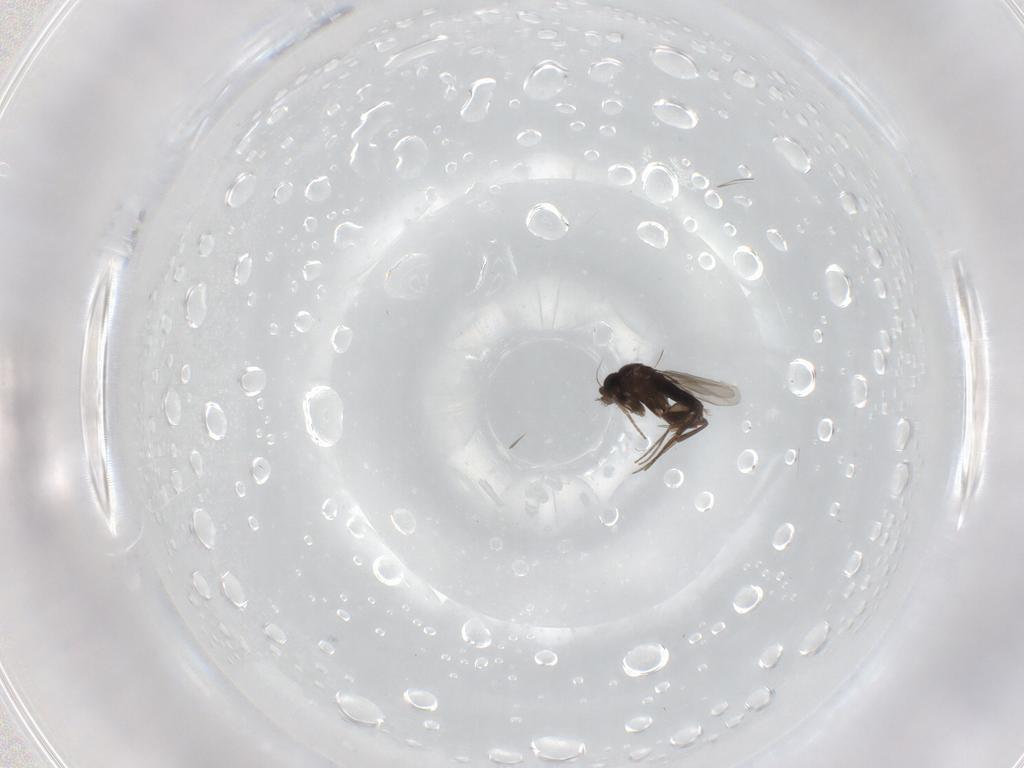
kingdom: Animalia
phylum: Arthropoda
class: Insecta
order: Diptera
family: Phoridae
